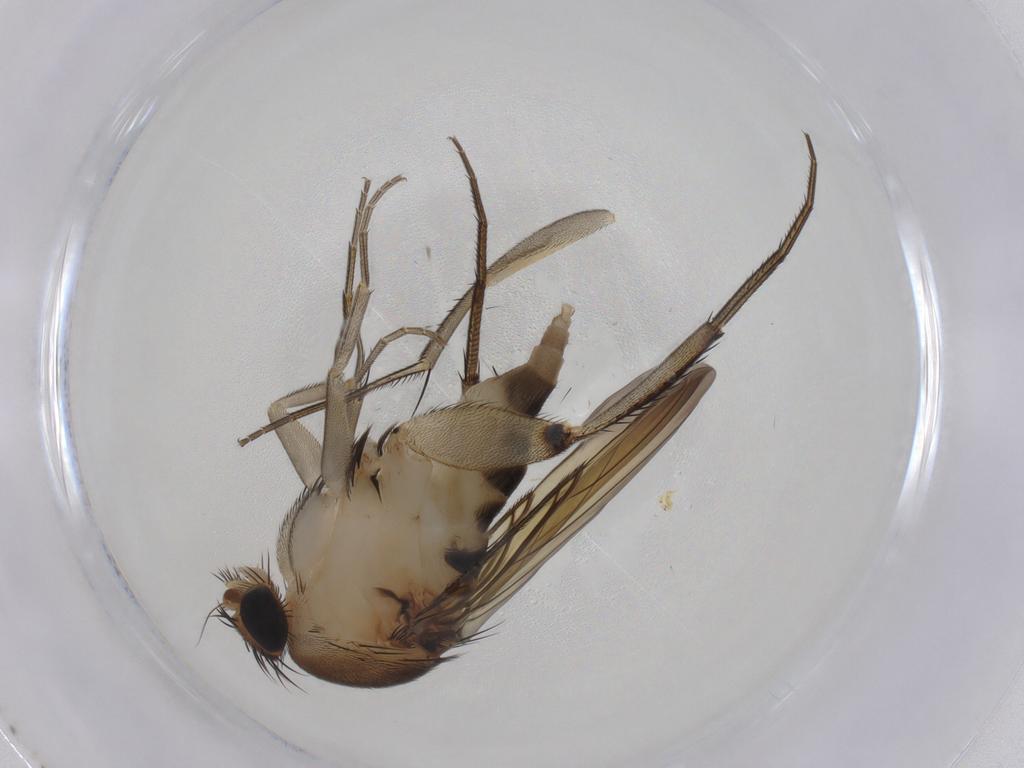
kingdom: Animalia
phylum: Arthropoda
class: Insecta
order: Diptera
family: Phoridae
